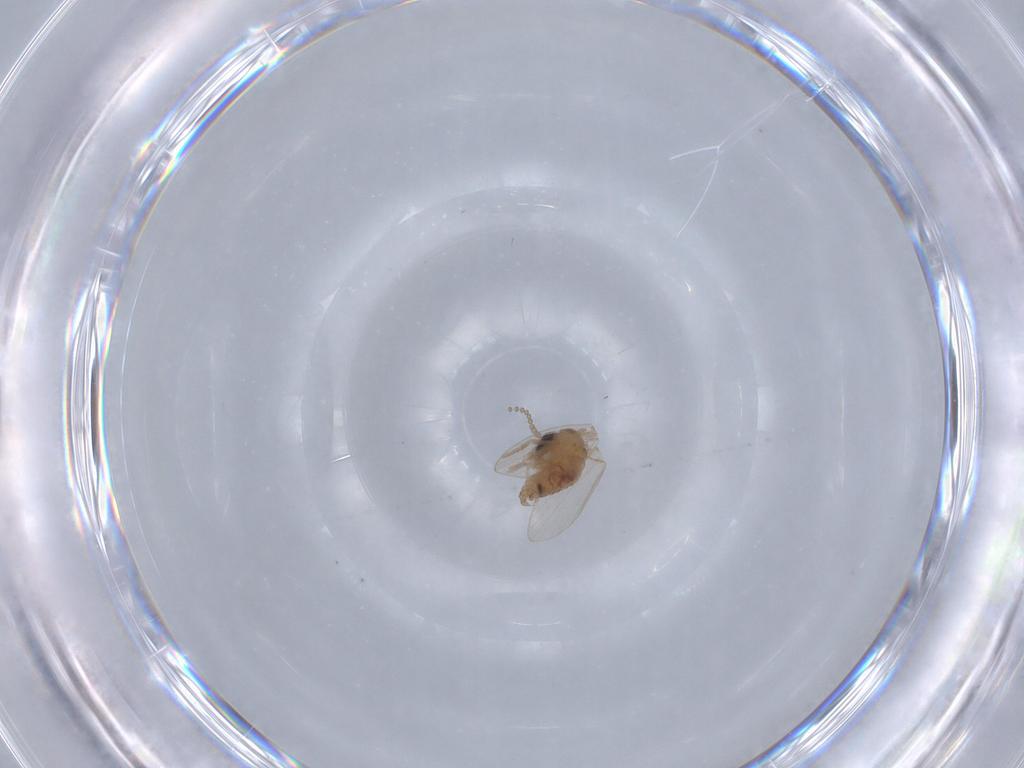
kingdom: Animalia
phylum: Arthropoda
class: Insecta
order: Diptera
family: Psychodidae
